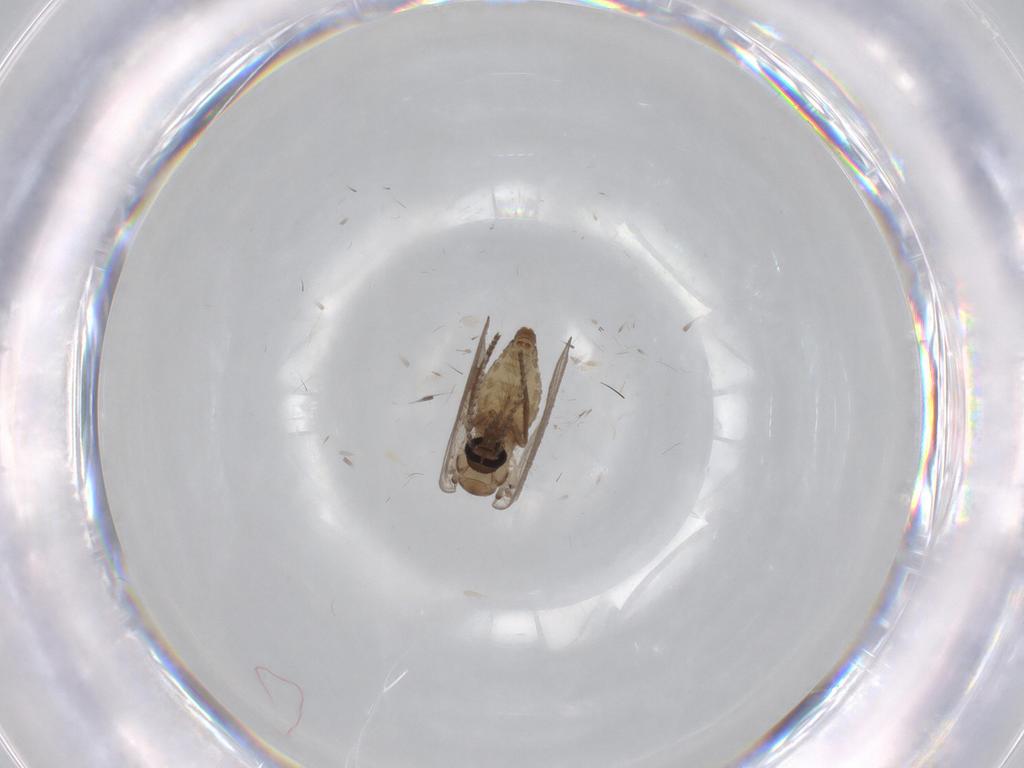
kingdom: Animalia
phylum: Arthropoda
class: Insecta
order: Diptera
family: Psychodidae
